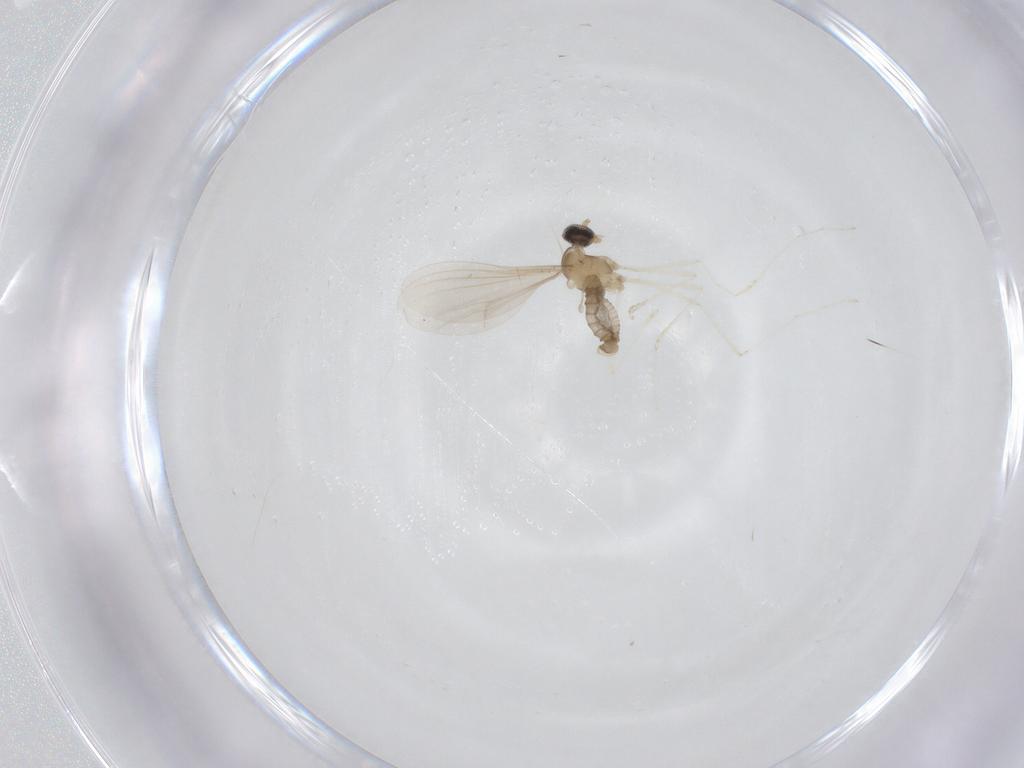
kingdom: Animalia
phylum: Arthropoda
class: Insecta
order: Diptera
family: Cecidomyiidae
